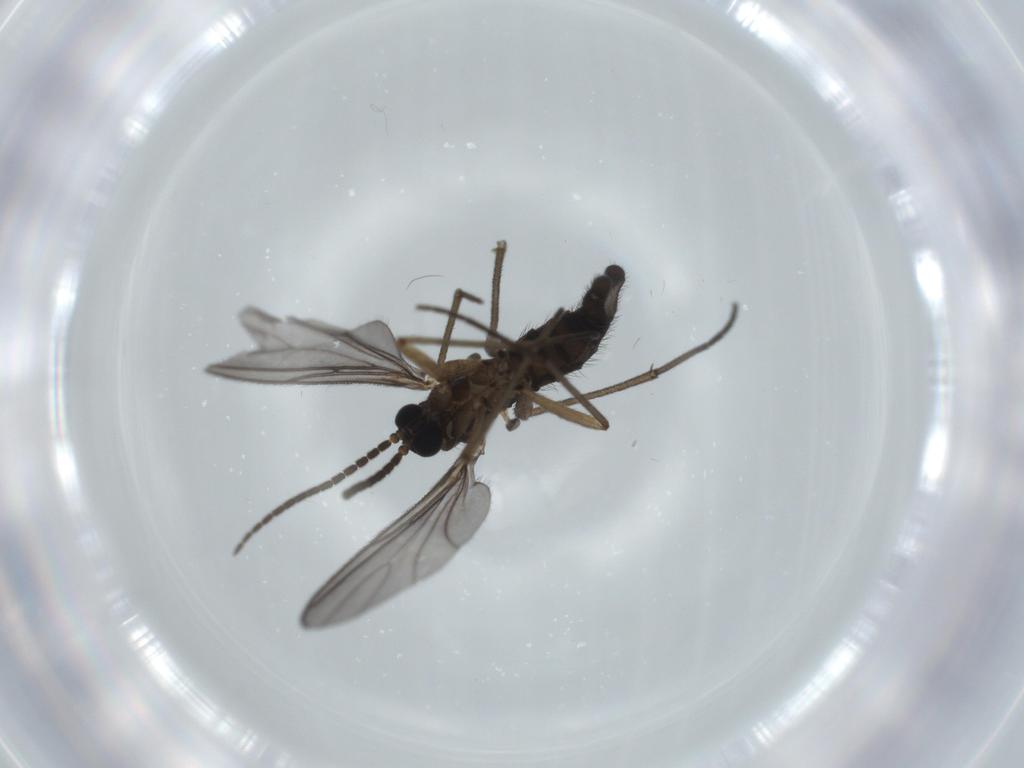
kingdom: Animalia
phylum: Arthropoda
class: Insecta
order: Diptera
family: Sciaridae
